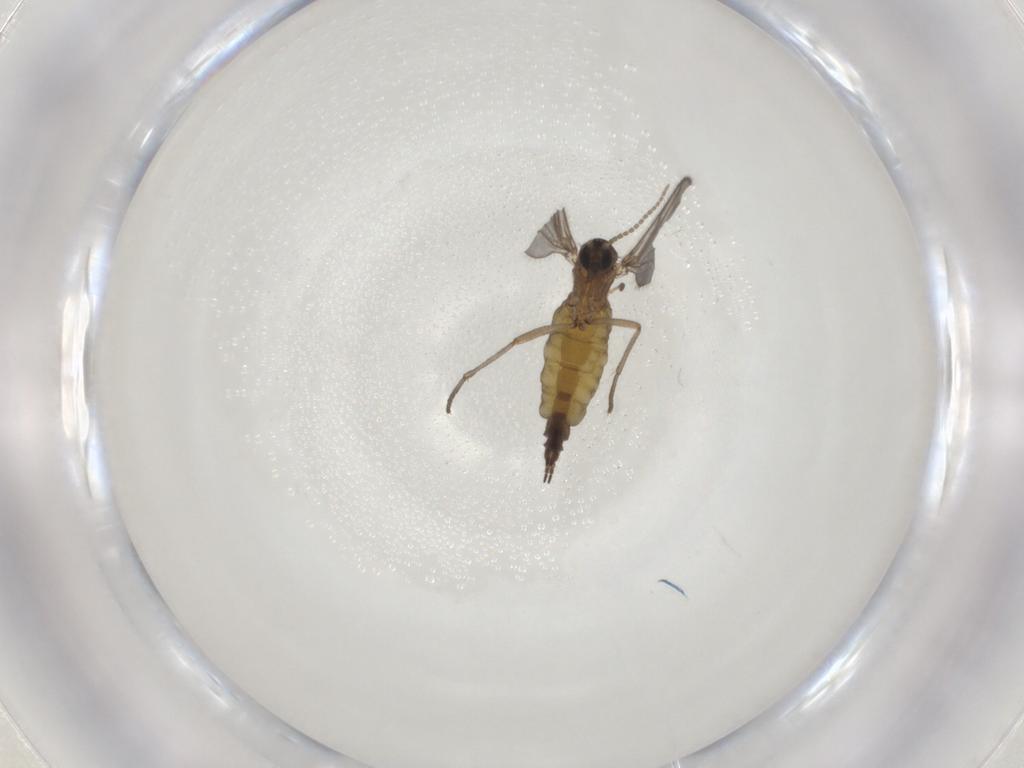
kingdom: Animalia
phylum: Arthropoda
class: Insecta
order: Diptera
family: Sciaridae
